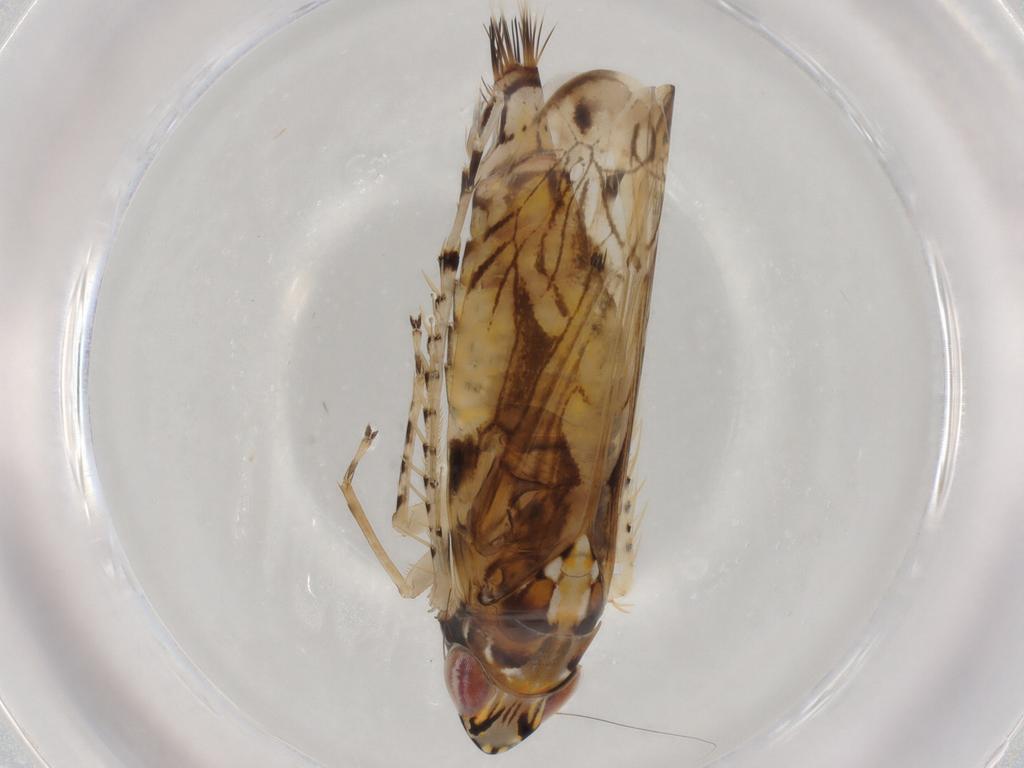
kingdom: Animalia
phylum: Arthropoda
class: Insecta
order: Hemiptera
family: Cicadellidae
